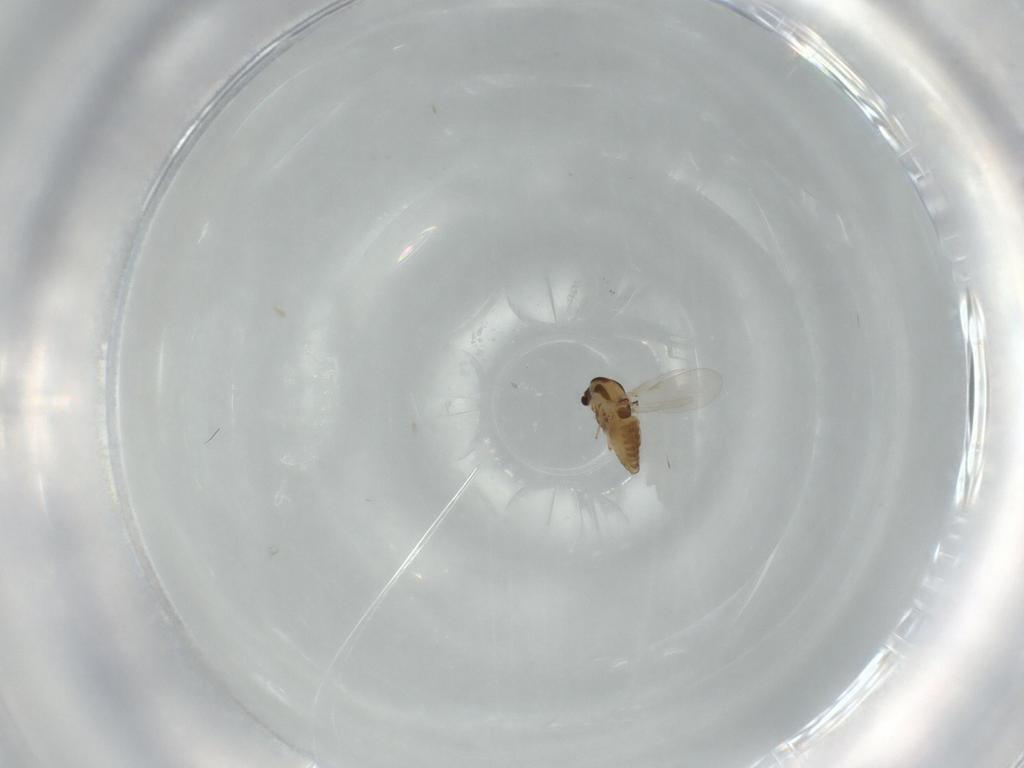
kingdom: Animalia
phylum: Arthropoda
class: Insecta
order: Diptera
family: Chironomidae
